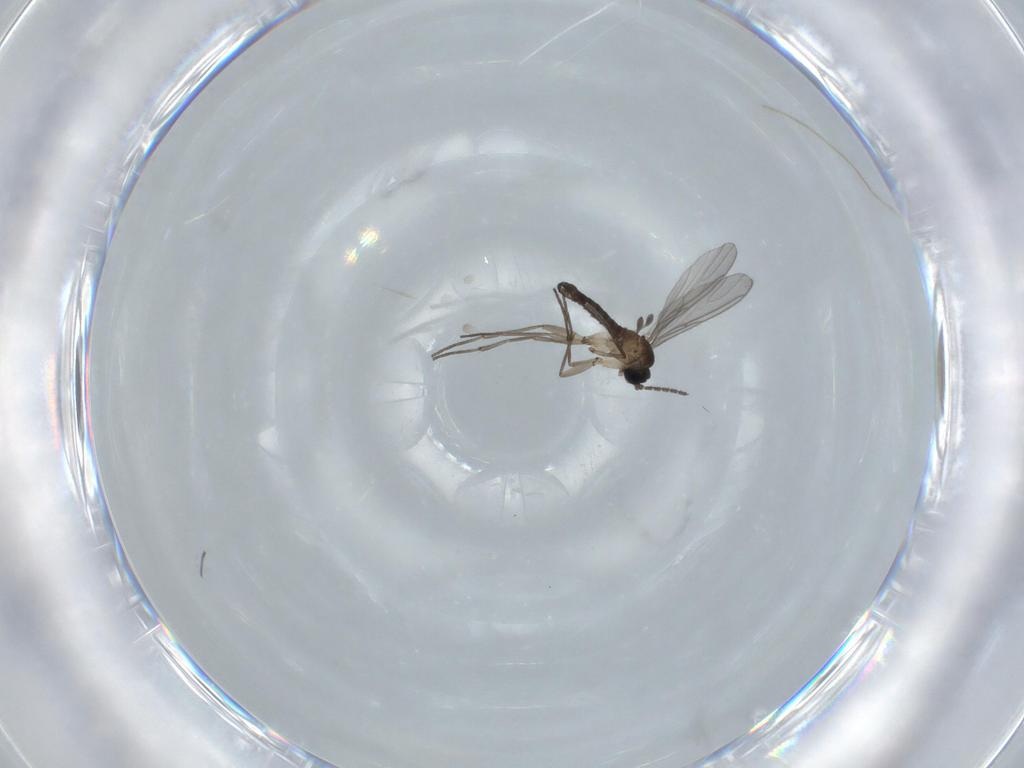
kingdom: Animalia
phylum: Arthropoda
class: Insecta
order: Diptera
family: Sciaridae
